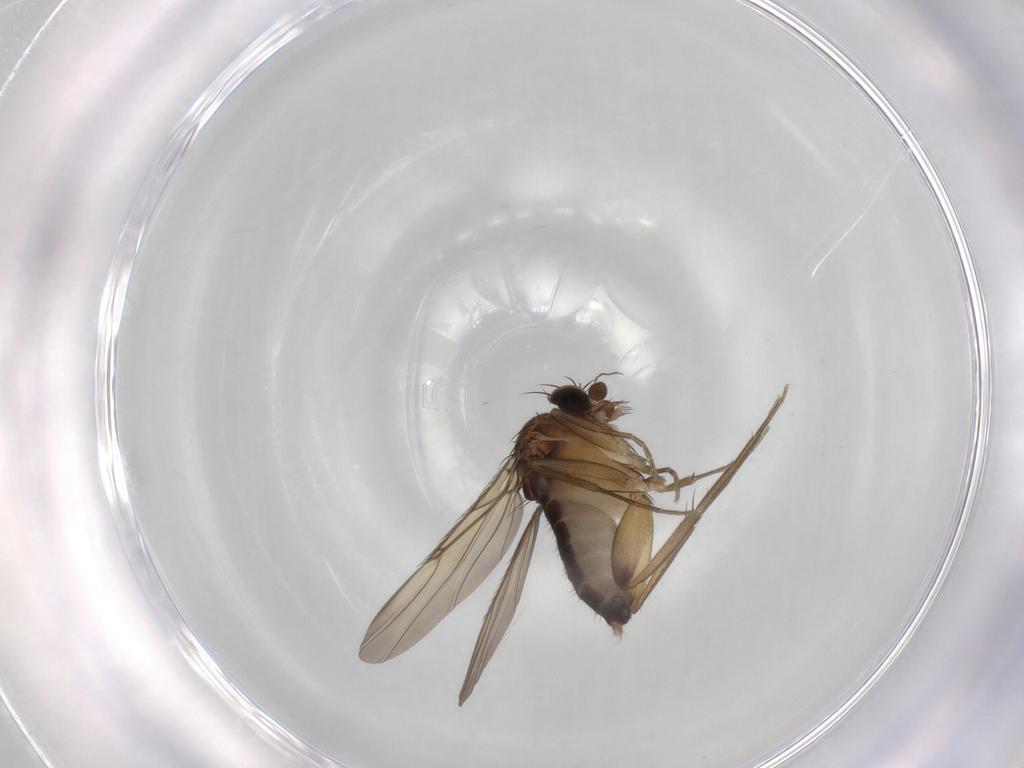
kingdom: Animalia
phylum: Arthropoda
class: Insecta
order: Diptera
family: Phoridae
